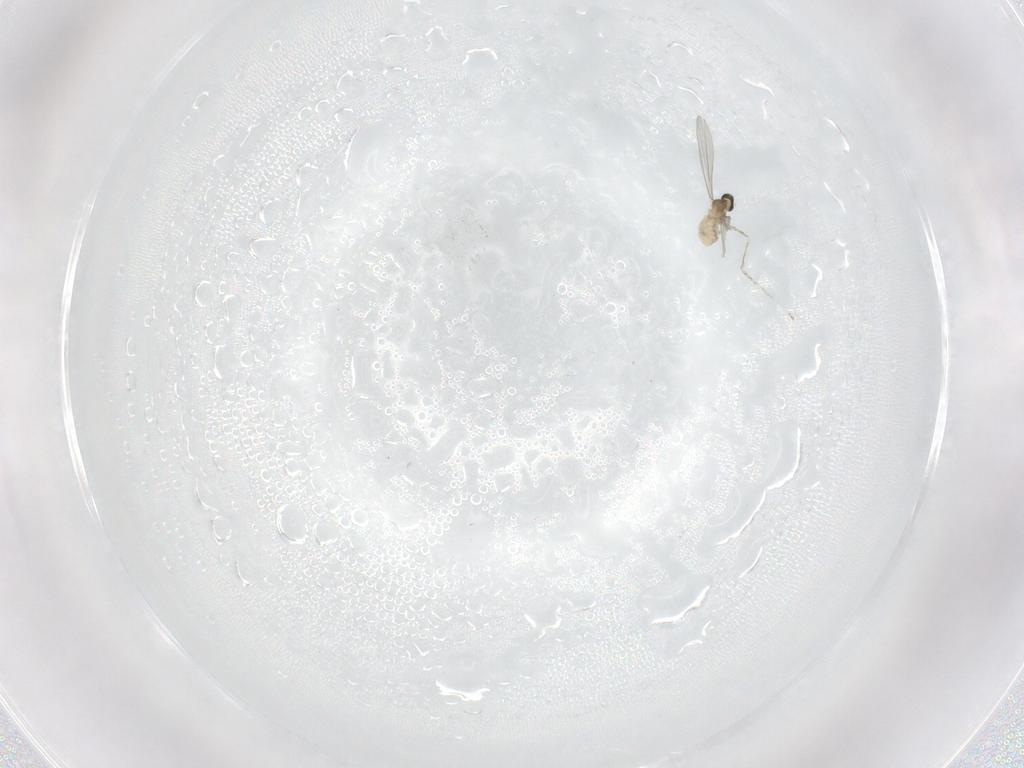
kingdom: Animalia
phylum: Arthropoda
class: Insecta
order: Diptera
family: Cecidomyiidae
